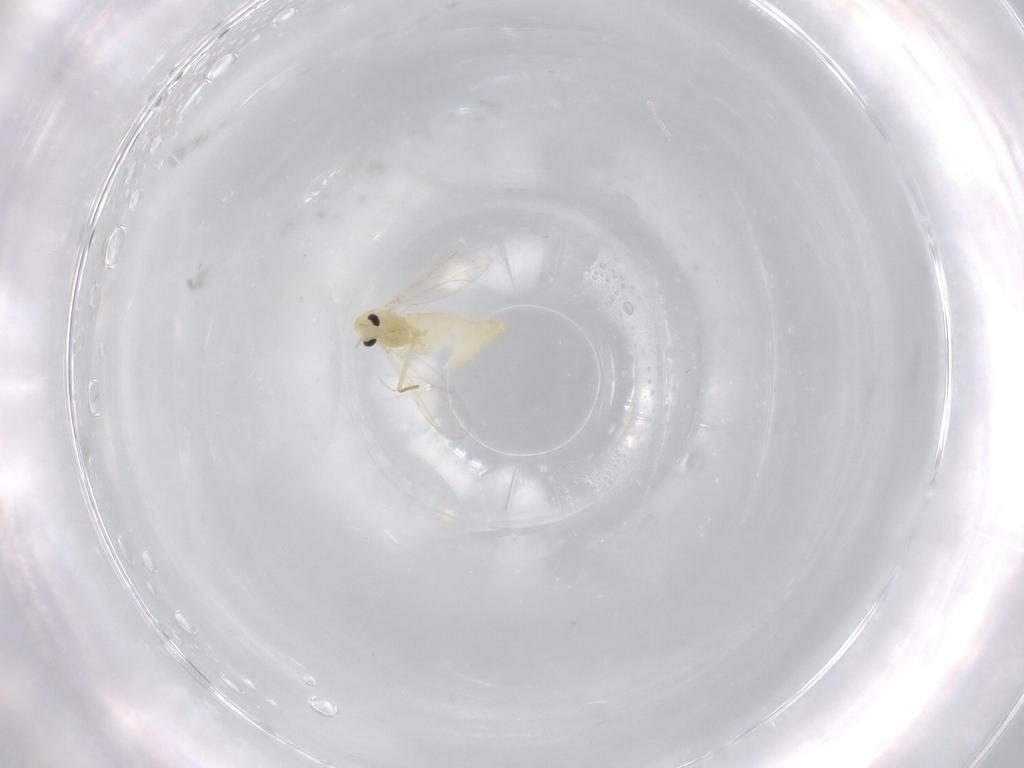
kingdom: Animalia
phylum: Arthropoda
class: Insecta
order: Diptera
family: Chironomidae
